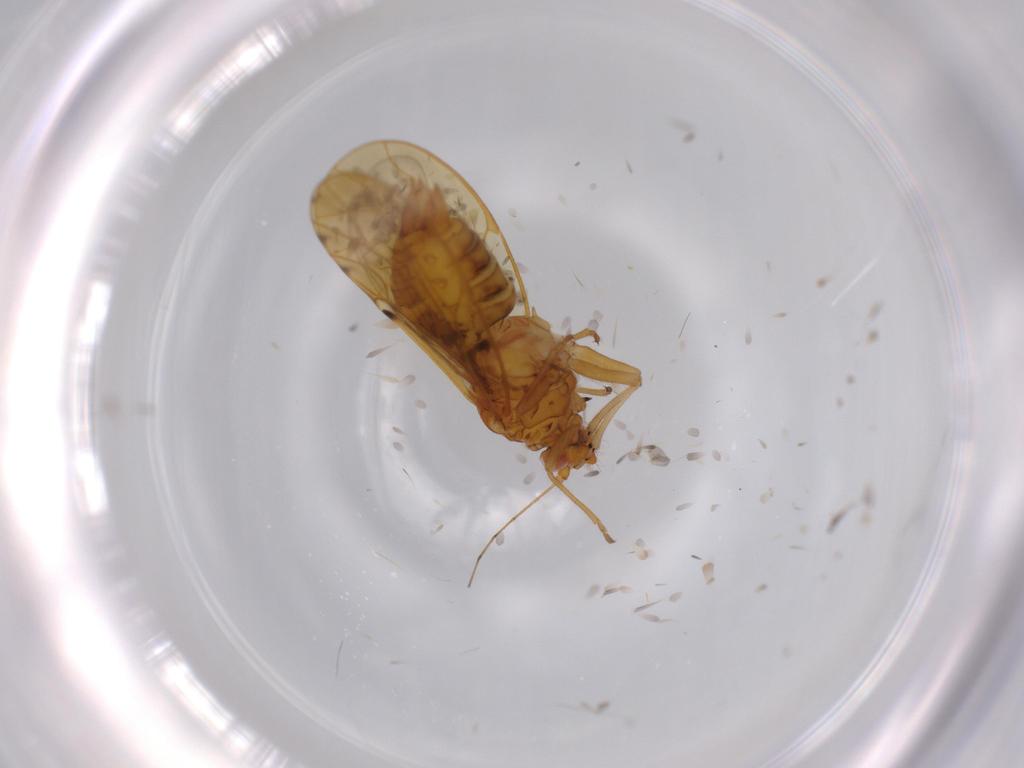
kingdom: Animalia
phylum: Arthropoda
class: Insecta
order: Hemiptera
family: Psylloidea_incertae_sedis
